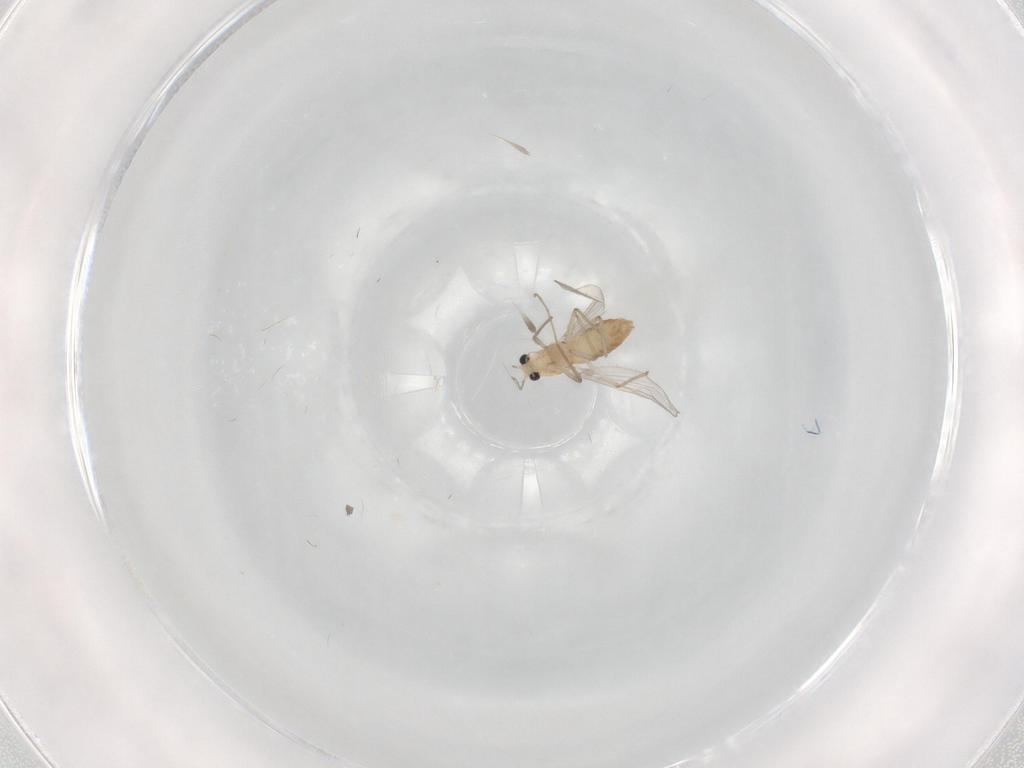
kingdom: Animalia
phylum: Arthropoda
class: Insecta
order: Diptera
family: Chironomidae
